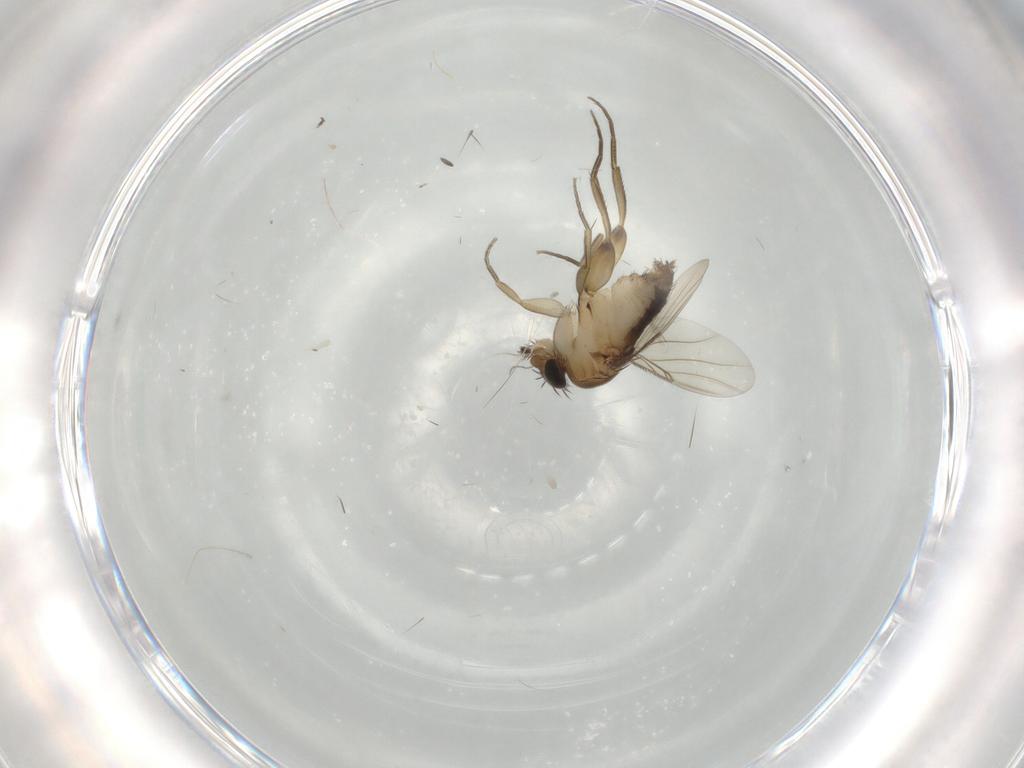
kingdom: Animalia
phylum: Arthropoda
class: Insecta
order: Diptera
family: Phoridae
